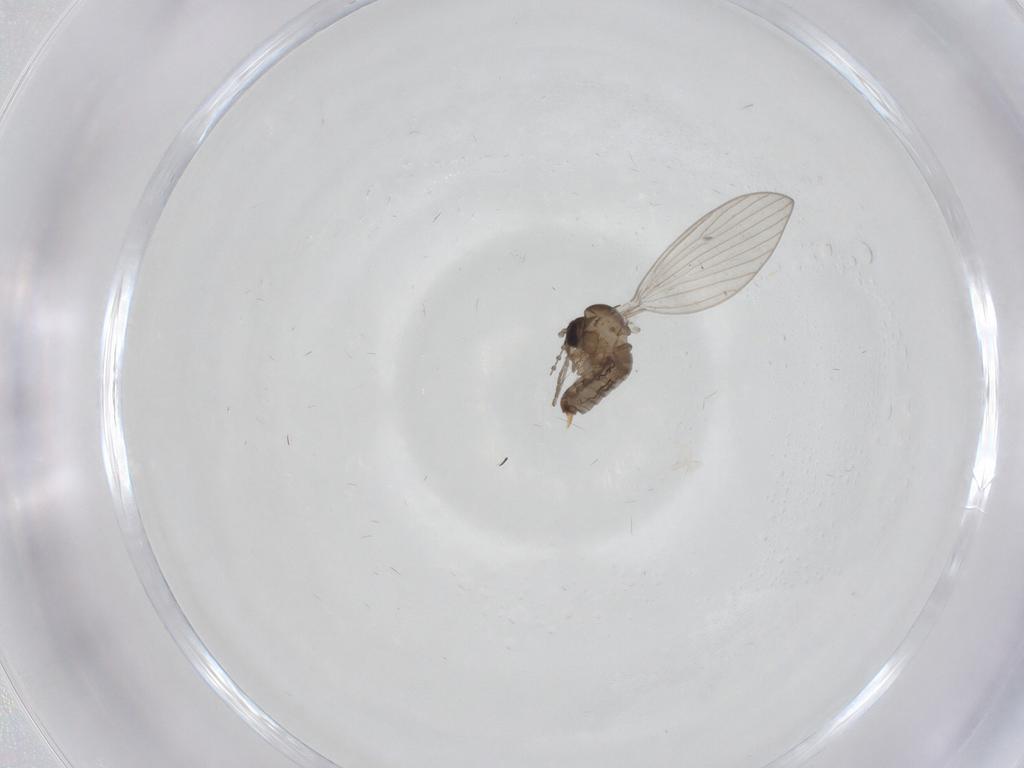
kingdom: Animalia
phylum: Arthropoda
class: Insecta
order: Diptera
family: Psychodidae
